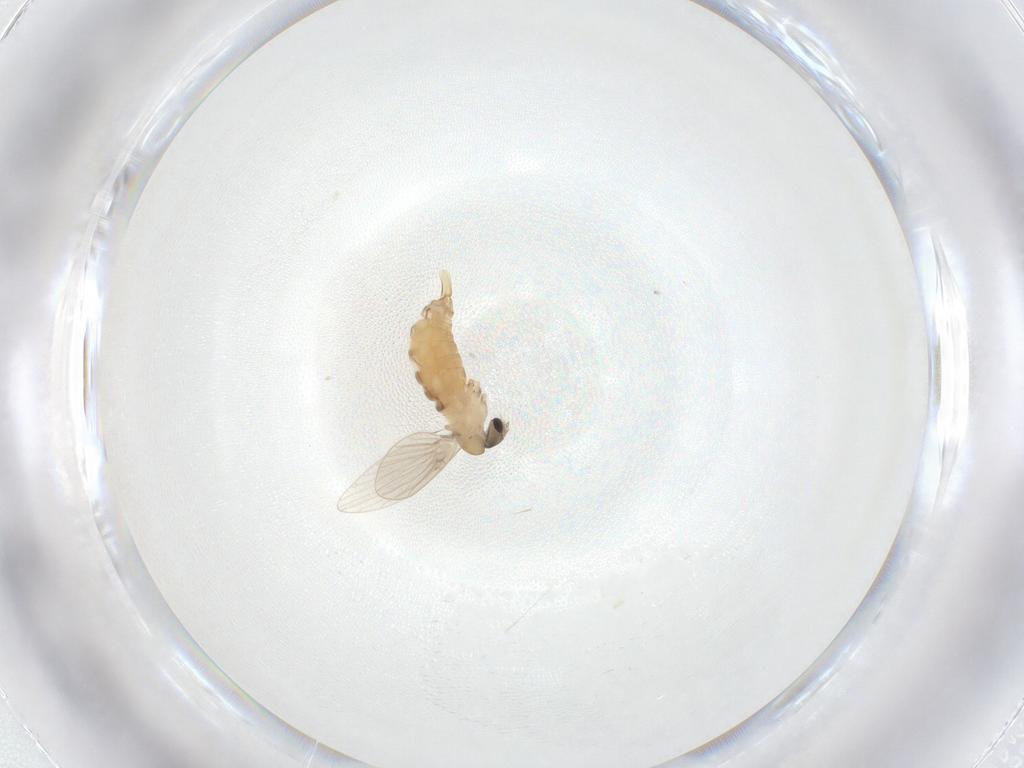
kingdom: Animalia
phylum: Arthropoda
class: Insecta
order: Diptera
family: Psychodidae
